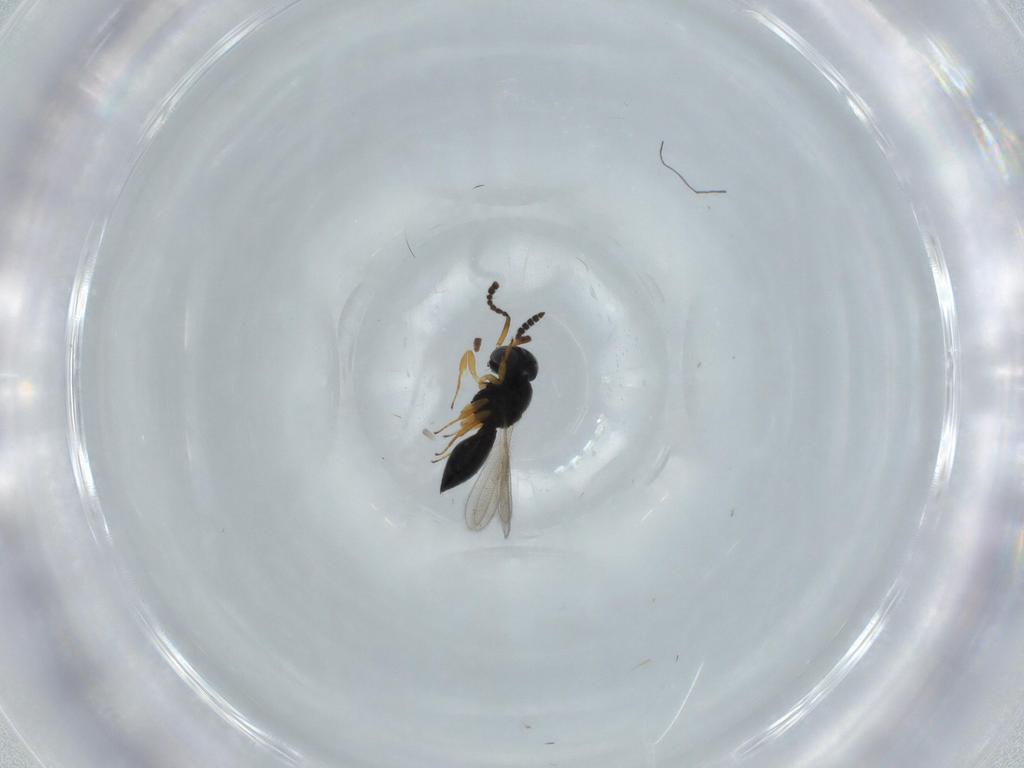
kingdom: Animalia
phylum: Arthropoda
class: Insecta
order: Hymenoptera
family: Scelionidae
